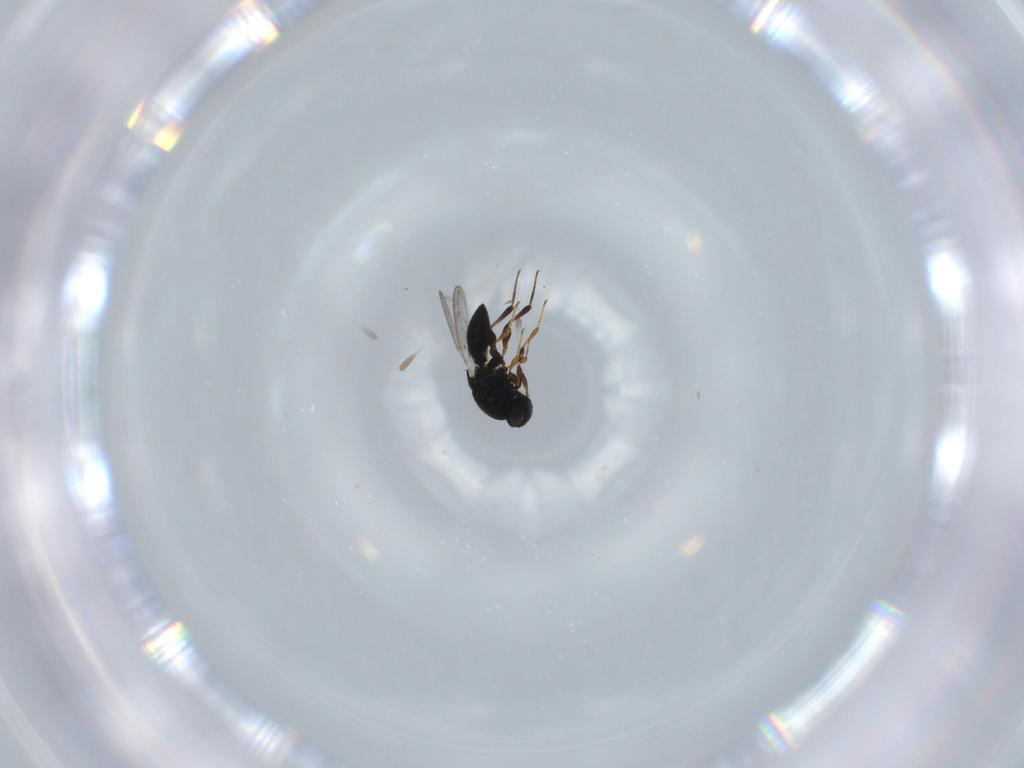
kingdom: Animalia
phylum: Arthropoda
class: Insecta
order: Hymenoptera
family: Platygastridae
